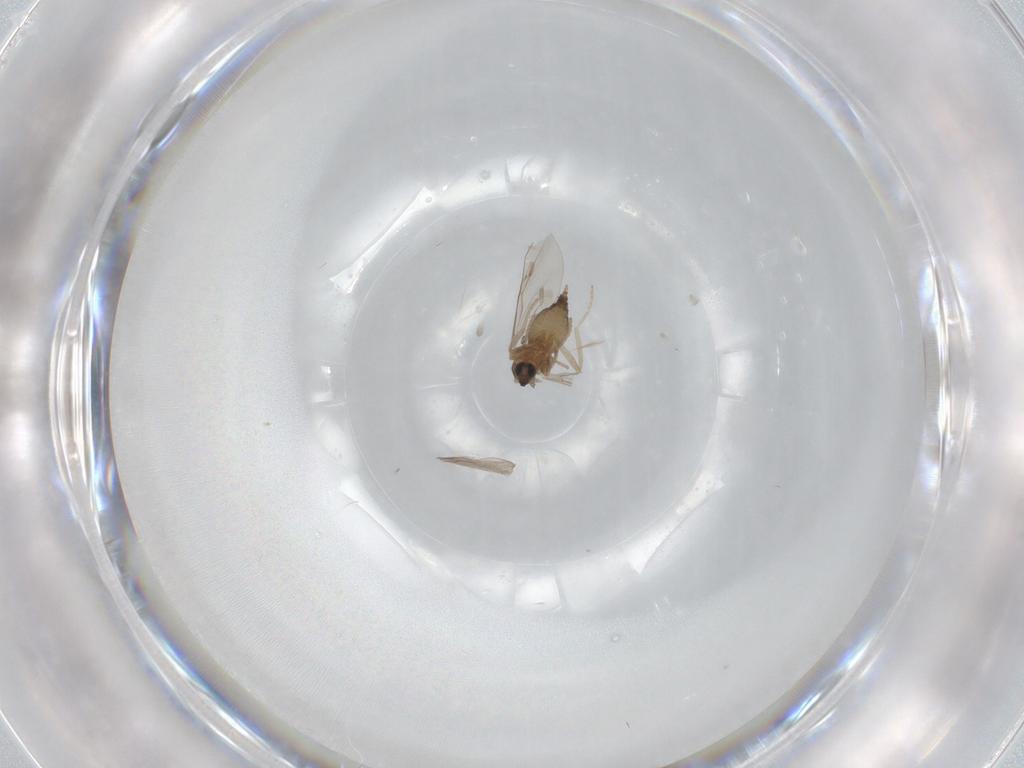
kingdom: Animalia
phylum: Arthropoda
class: Insecta
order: Diptera
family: Cecidomyiidae
